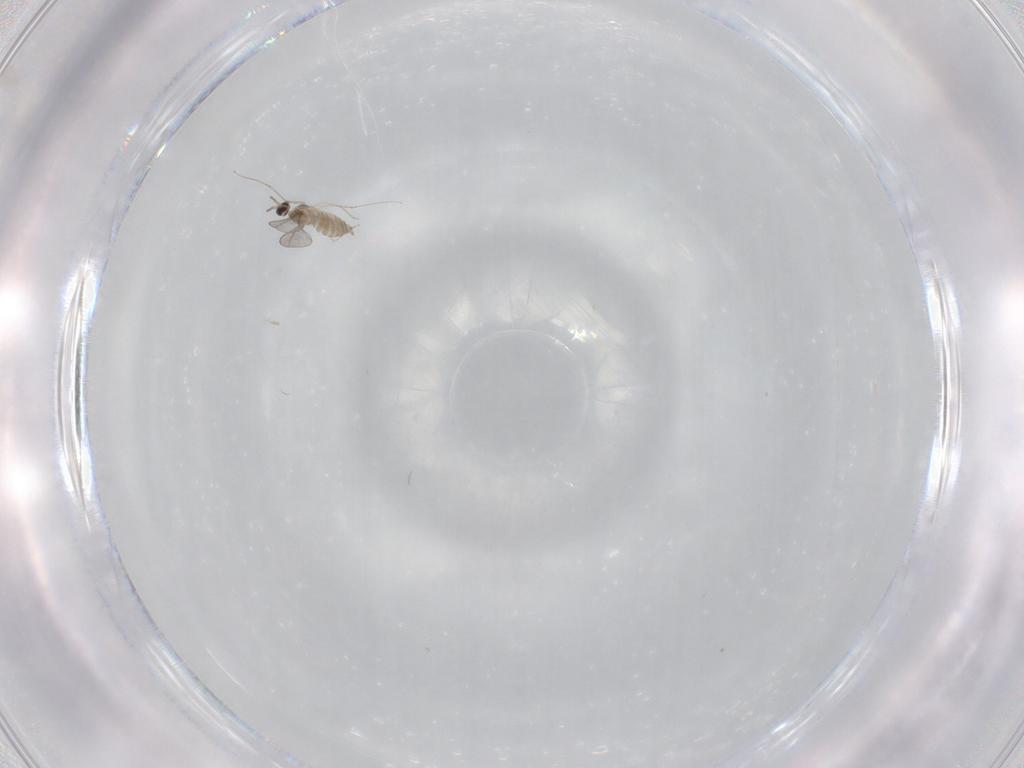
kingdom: Animalia
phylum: Arthropoda
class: Insecta
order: Diptera
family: Cecidomyiidae
